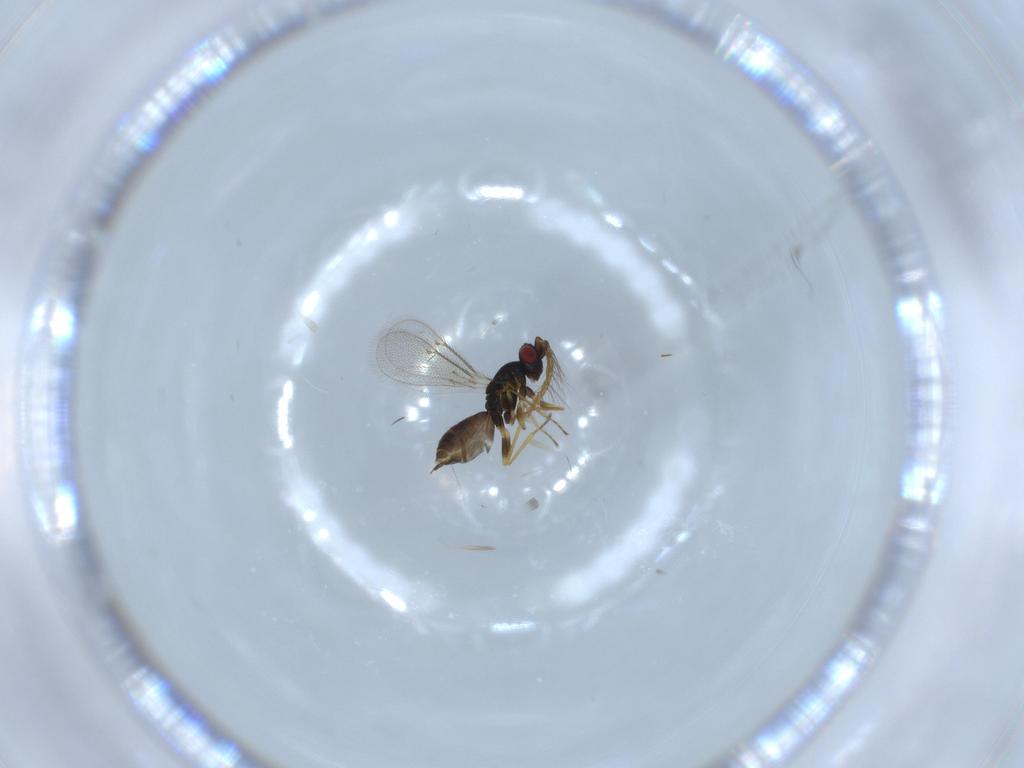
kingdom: Animalia
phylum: Arthropoda
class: Insecta
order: Hymenoptera
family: Eulophidae
